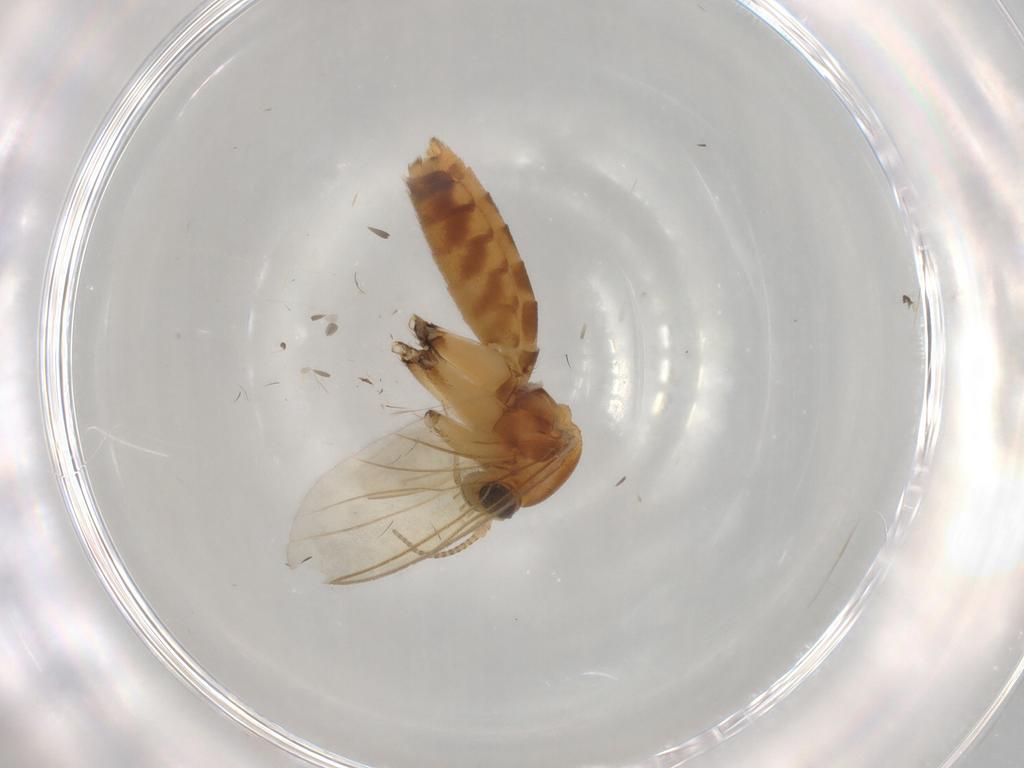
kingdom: Animalia
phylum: Arthropoda
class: Insecta
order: Diptera
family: Mycetophilidae
